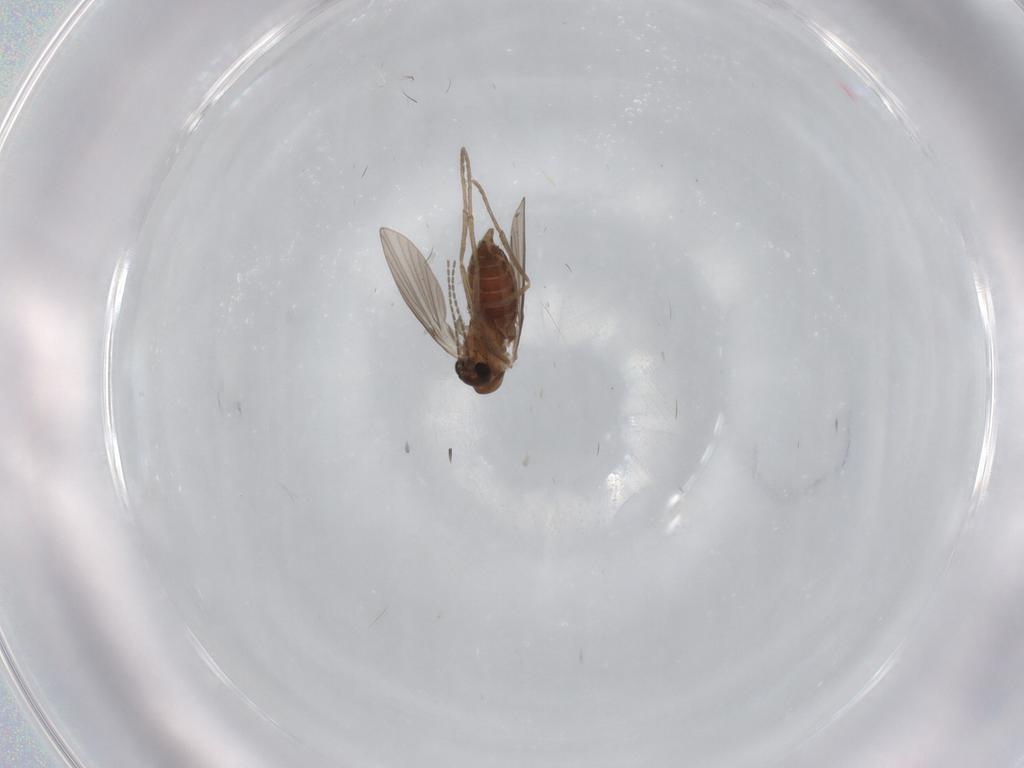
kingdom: Animalia
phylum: Arthropoda
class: Insecta
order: Diptera
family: Limoniidae
